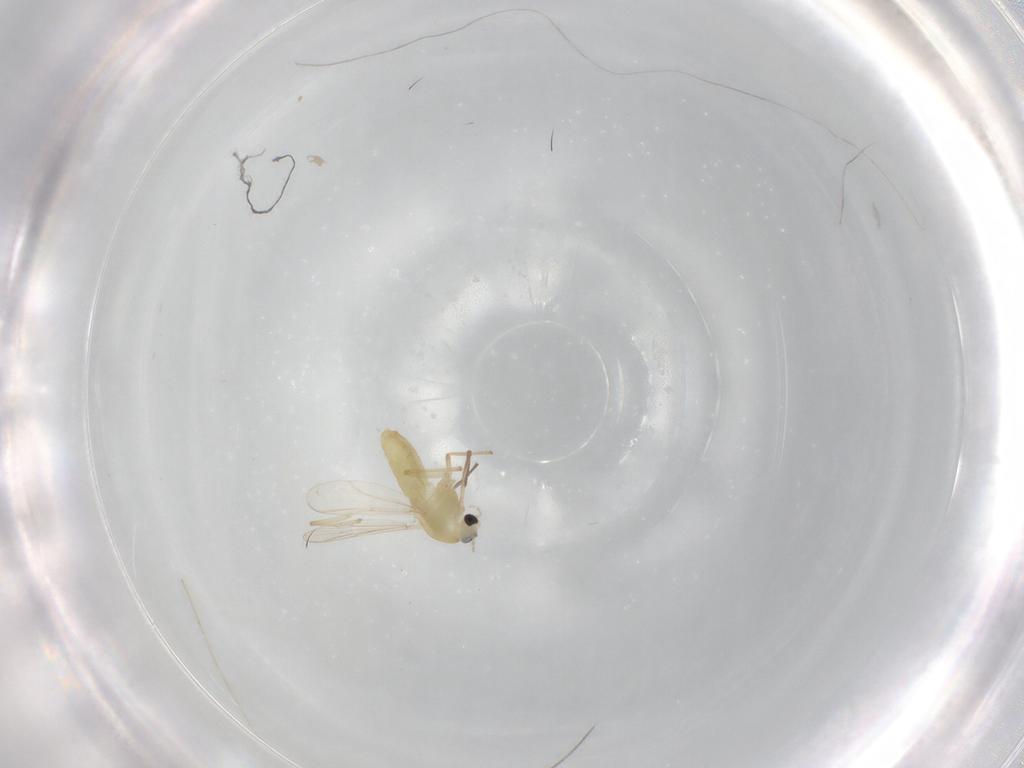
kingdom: Animalia
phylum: Arthropoda
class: Insecta
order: Diptera
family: Chironomidae
